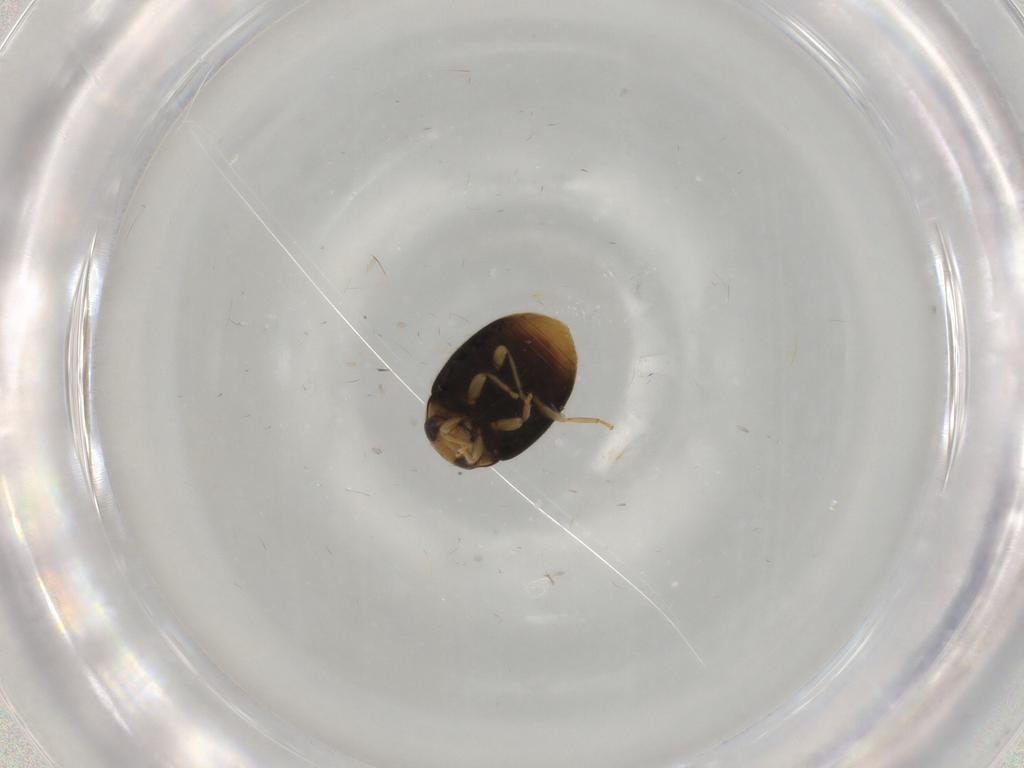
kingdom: Animalia
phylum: Arthropoda
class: Insecta
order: Coleoptera
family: Coccinellidae
